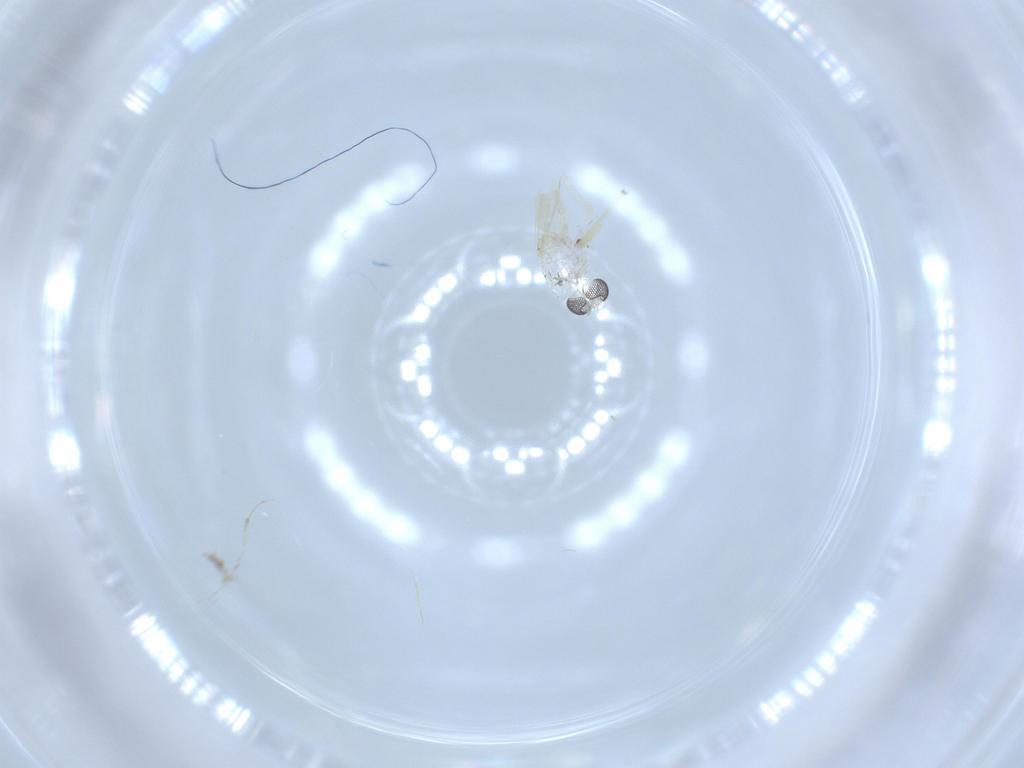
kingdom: Animalia
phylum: Arthropoda
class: Insecta
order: Diptera
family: Chironomidae
